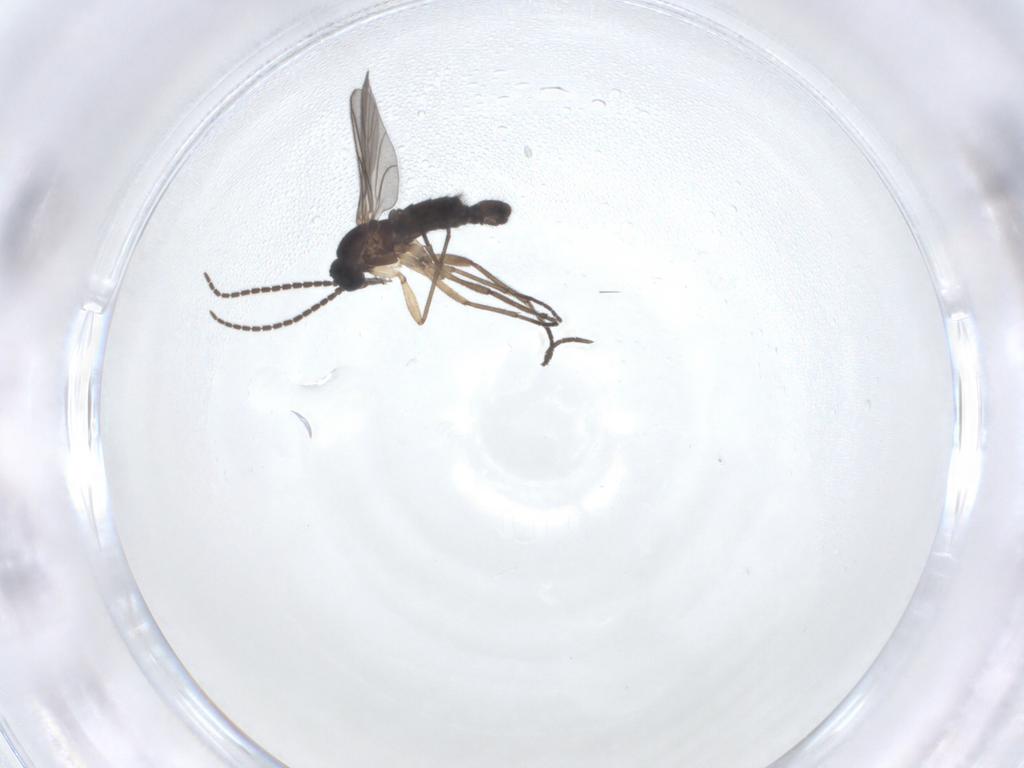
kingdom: Animalia
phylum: Arthropoda
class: Insecta
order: Diptera
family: Sciaridae
